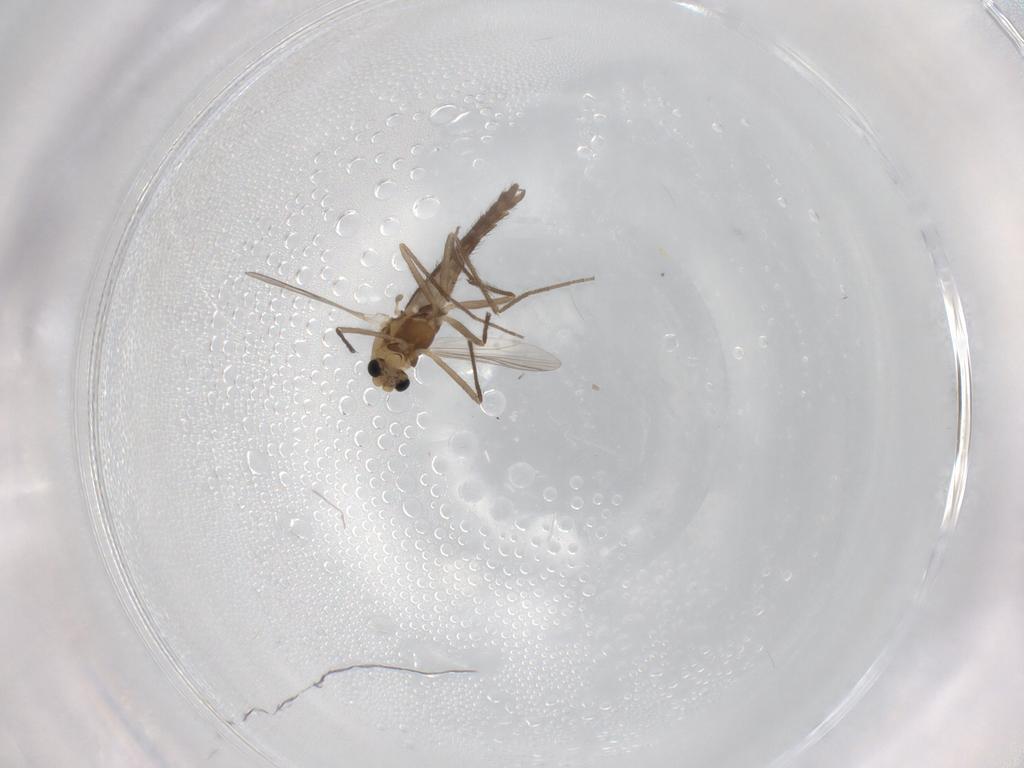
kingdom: Animalia
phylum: Arthropoda
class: Insecta
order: Diptera
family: Chironomidae
